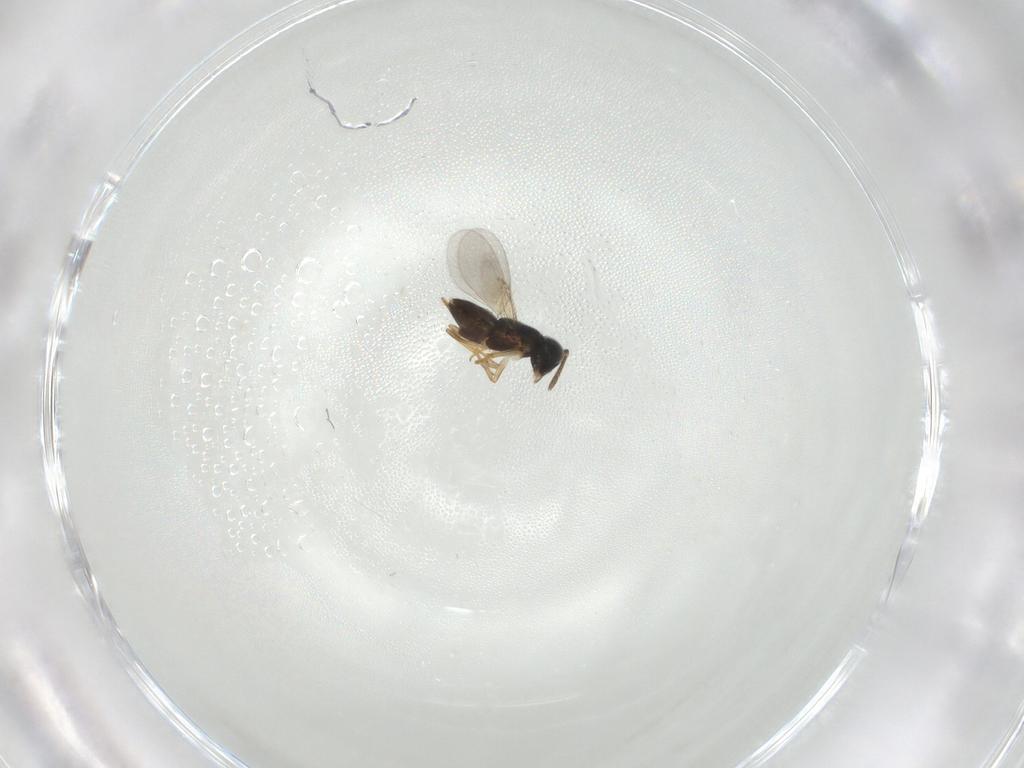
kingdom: Animalia
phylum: Arthropoda
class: Insecta
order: Hymenoptera
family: Encyrtidae
